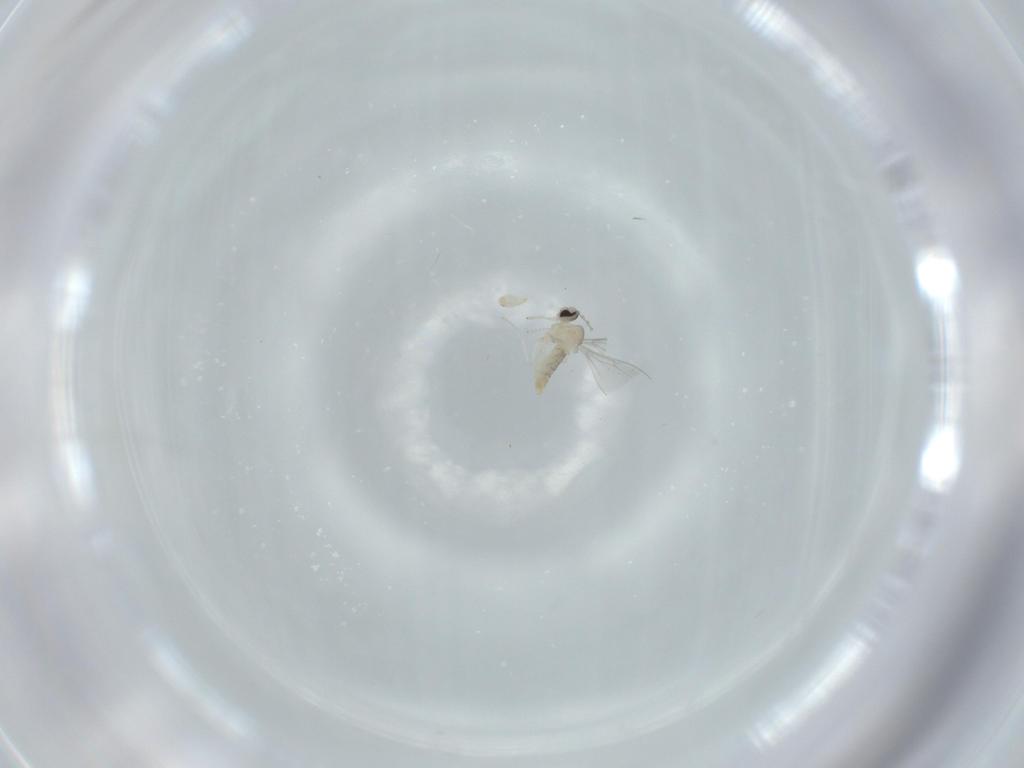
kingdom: Animalia
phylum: Arthropoda
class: Insecta
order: Diptera
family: Cecidomyiidae
